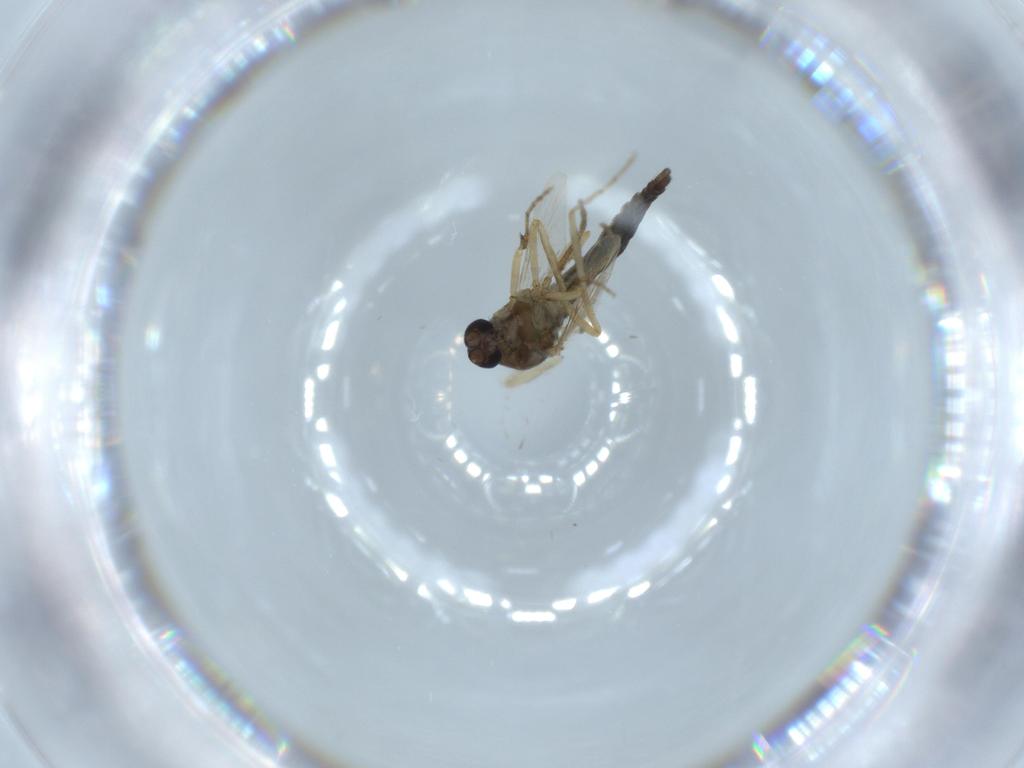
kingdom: Animalia
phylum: Arthropoda
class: Insecta
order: Diptera
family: Ceratopogonidae
